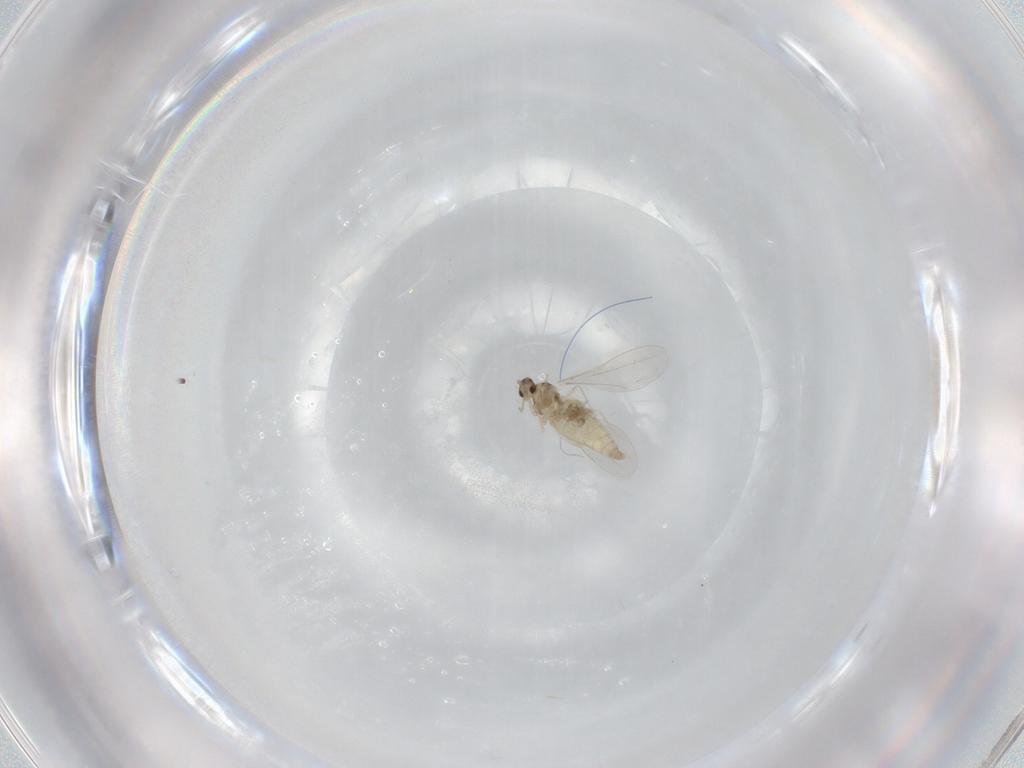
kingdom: Animalia
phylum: Arthropoda
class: Insecta
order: Diptera
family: Cecidomyiidae
